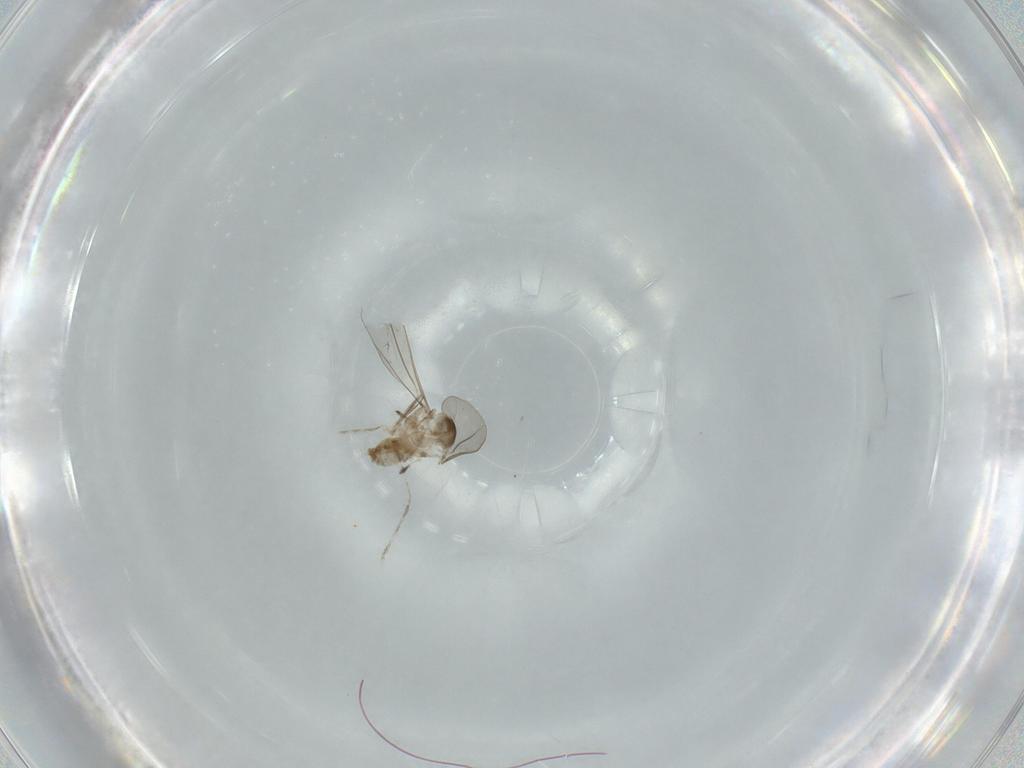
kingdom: Animalia
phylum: Arthropoda
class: Insecta
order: Diptera
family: Cecidomyiidae
